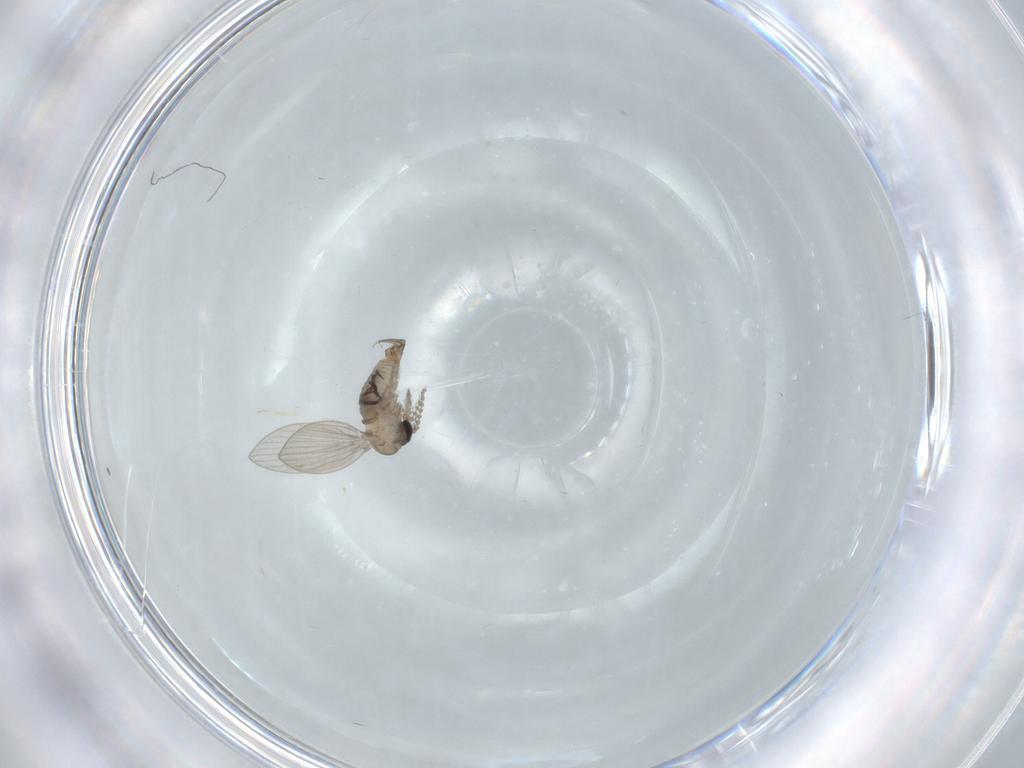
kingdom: Animalia
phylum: Arthropoda
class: Insecta
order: Diptera
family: Psychodidae
